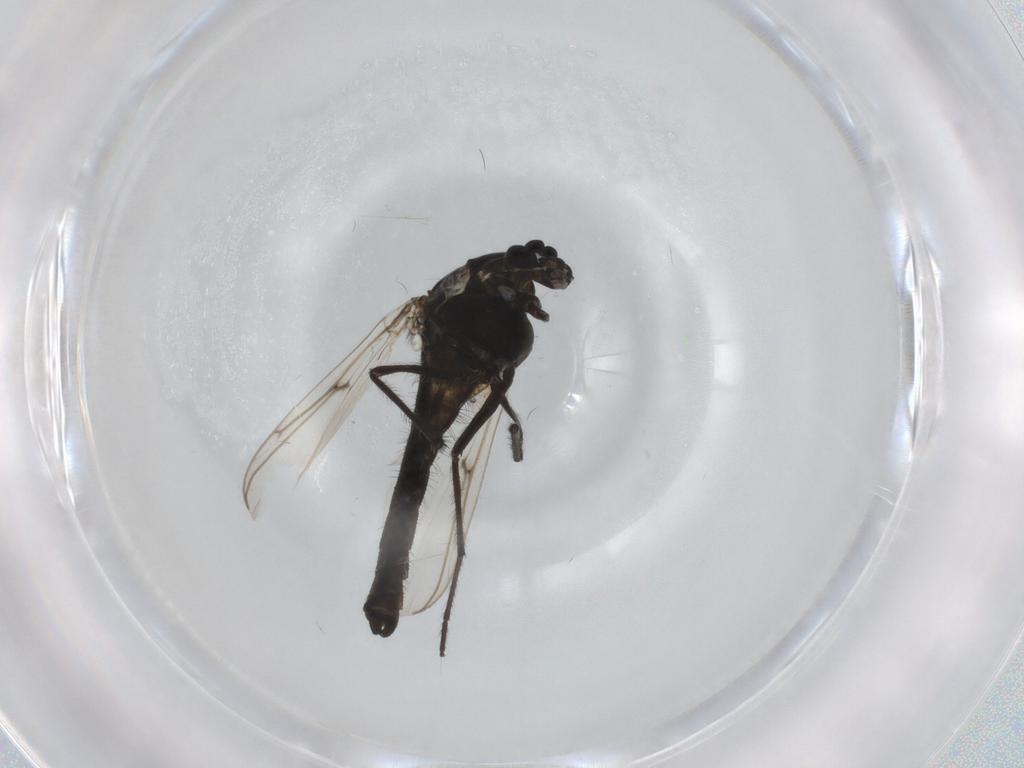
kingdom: Animalia
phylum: Arthropoda
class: Insecta
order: Diptera
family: Chironomidae
